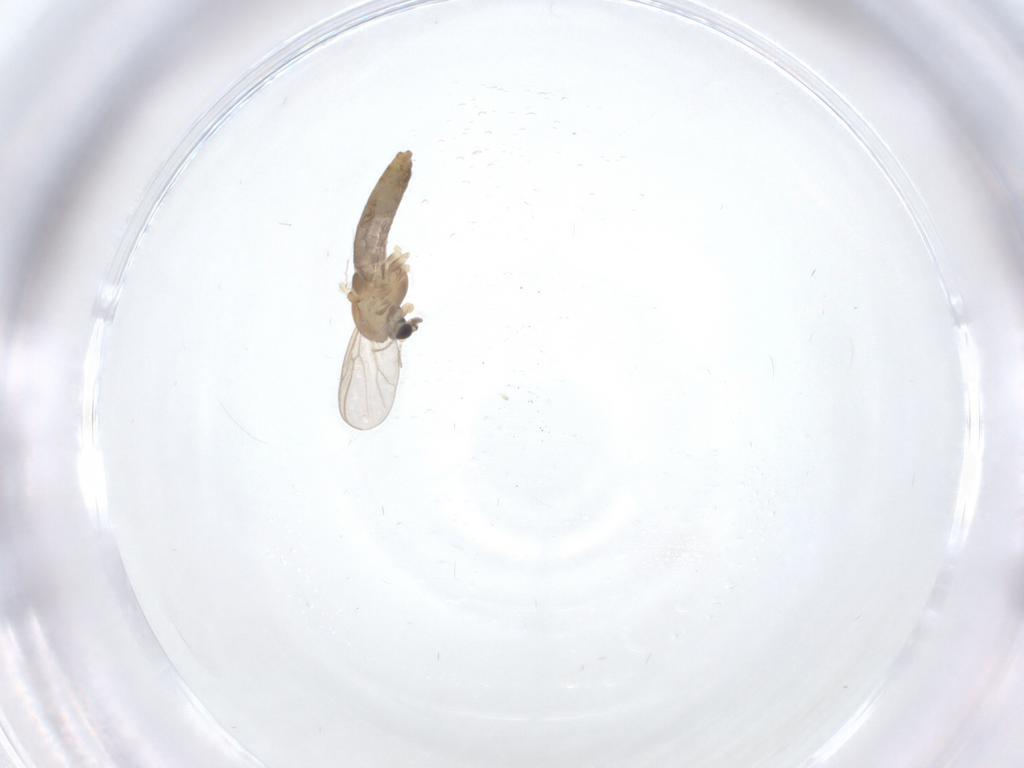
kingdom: Animalia
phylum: Arthropoda
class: Insecta
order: Diptera
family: Chironomidae
